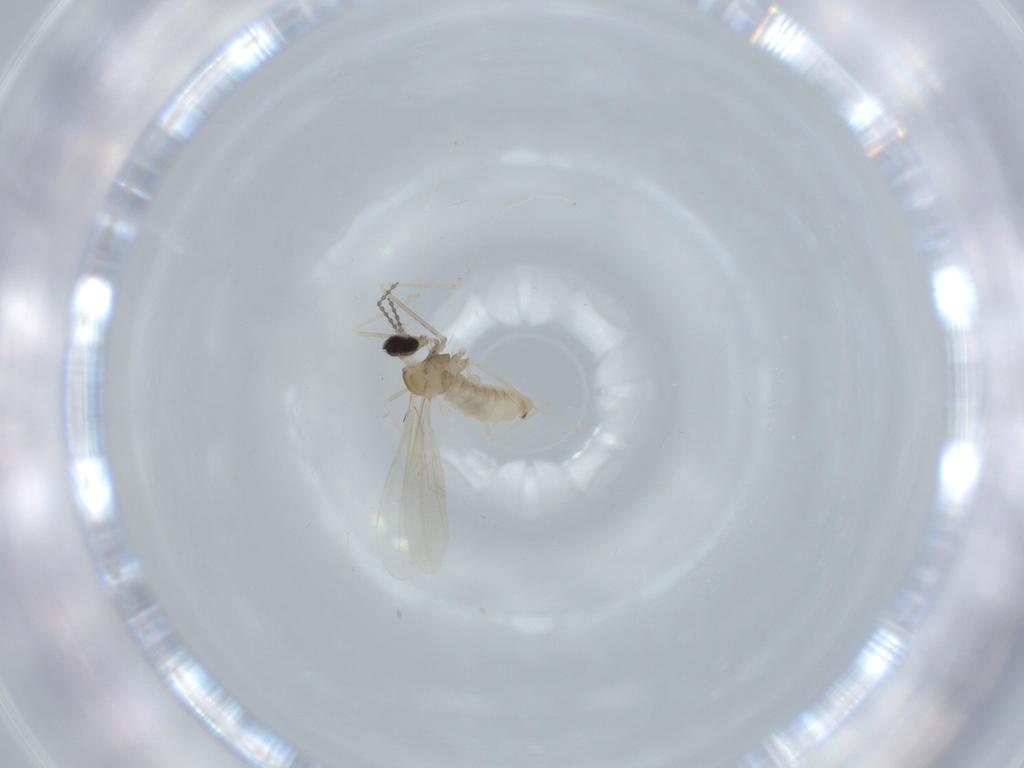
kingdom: Animalia
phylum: Arthropoda
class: Insecta
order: Diptera
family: Cecidomyiidae
